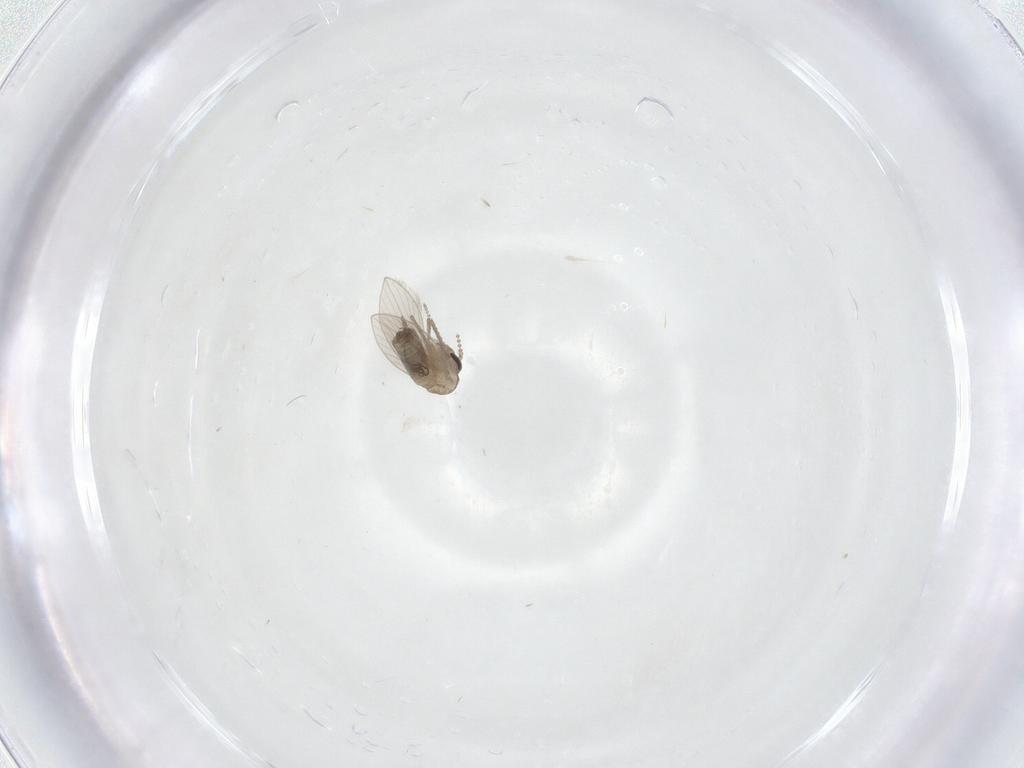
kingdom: Animalia
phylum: Arthropoda
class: Insecta
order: Diptera
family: Psychodidae
